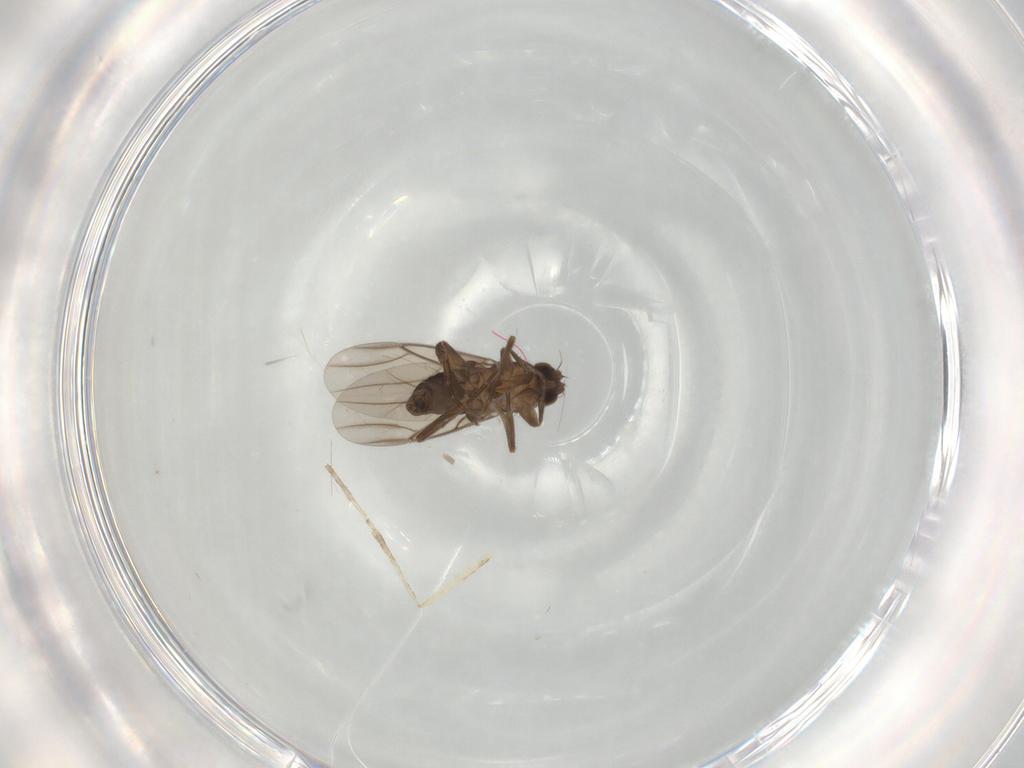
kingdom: Animalia
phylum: Arthropoda
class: Insecta
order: Diptera
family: Phoridae
